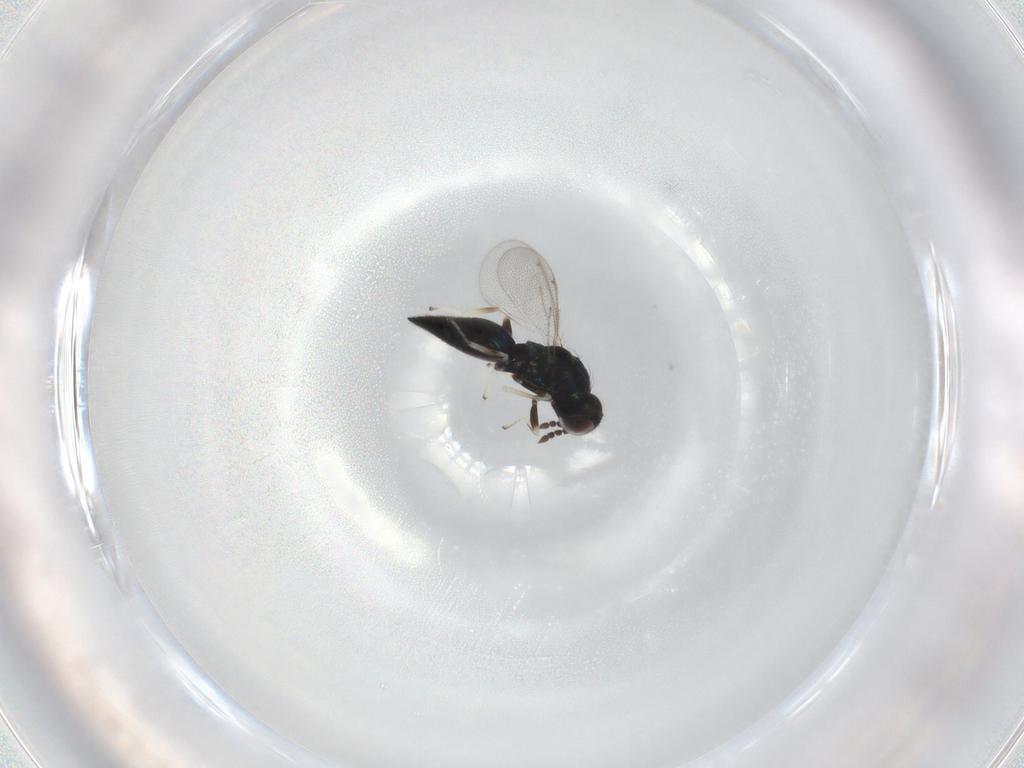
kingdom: Animalia
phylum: Arthropoda
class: Insecta
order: Hymenoptera
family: Eulophidae
